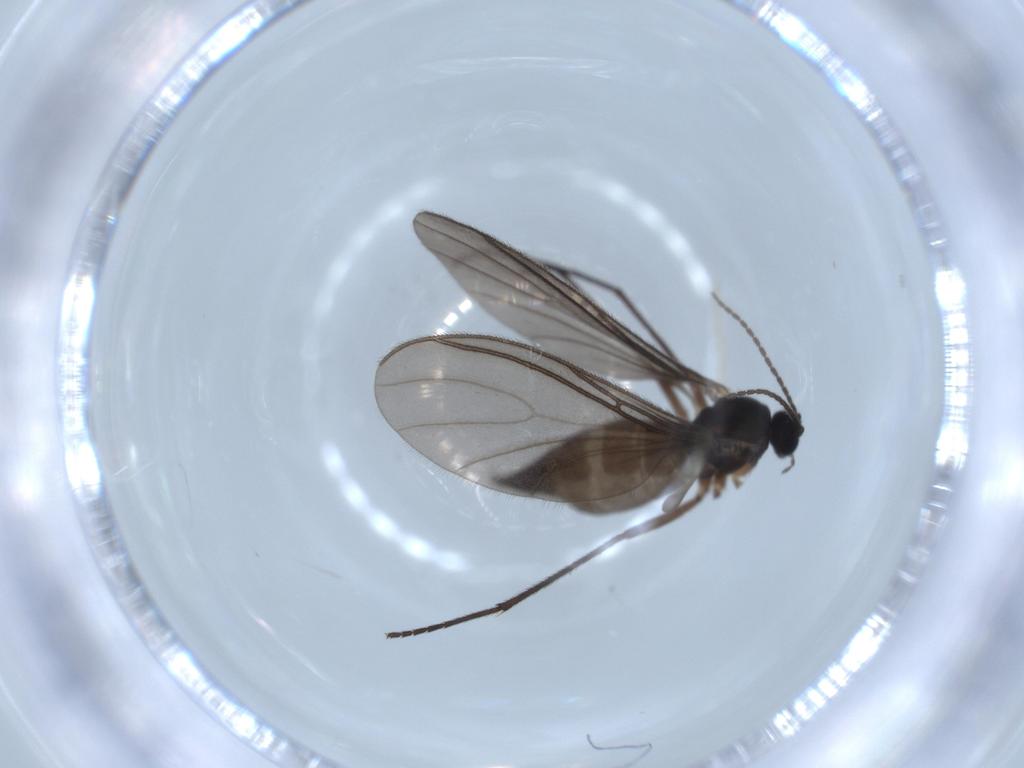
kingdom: Animalia
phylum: Arthropoda
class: Insecta
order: Diptera
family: Sciaridae
